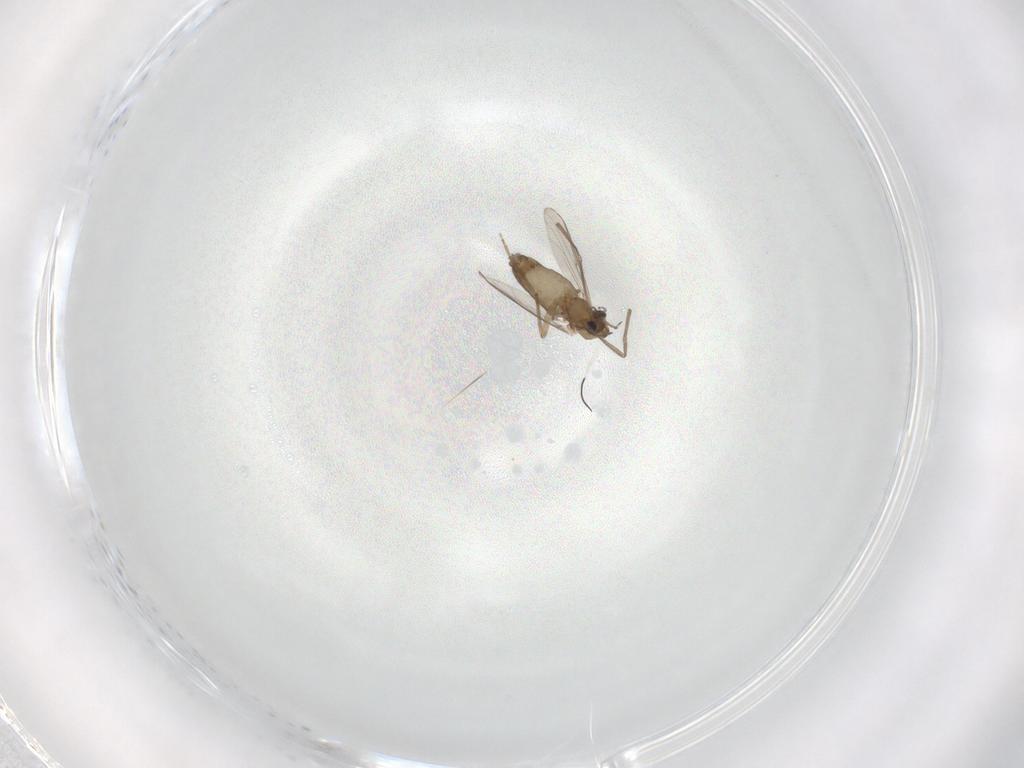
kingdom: Animalia
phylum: Arthropoda
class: Insecta
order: Diptera
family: Chironomidae
